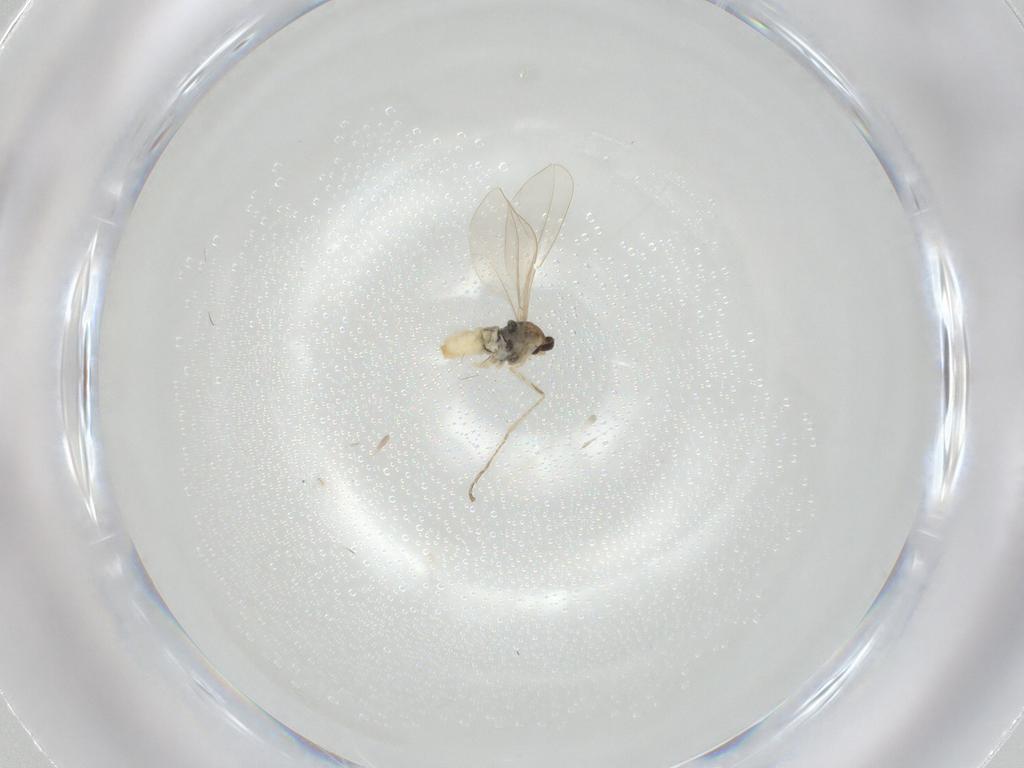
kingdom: Animalia
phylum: Arthropoda
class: Insecta
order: Diptera
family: Cecidomyiidae
